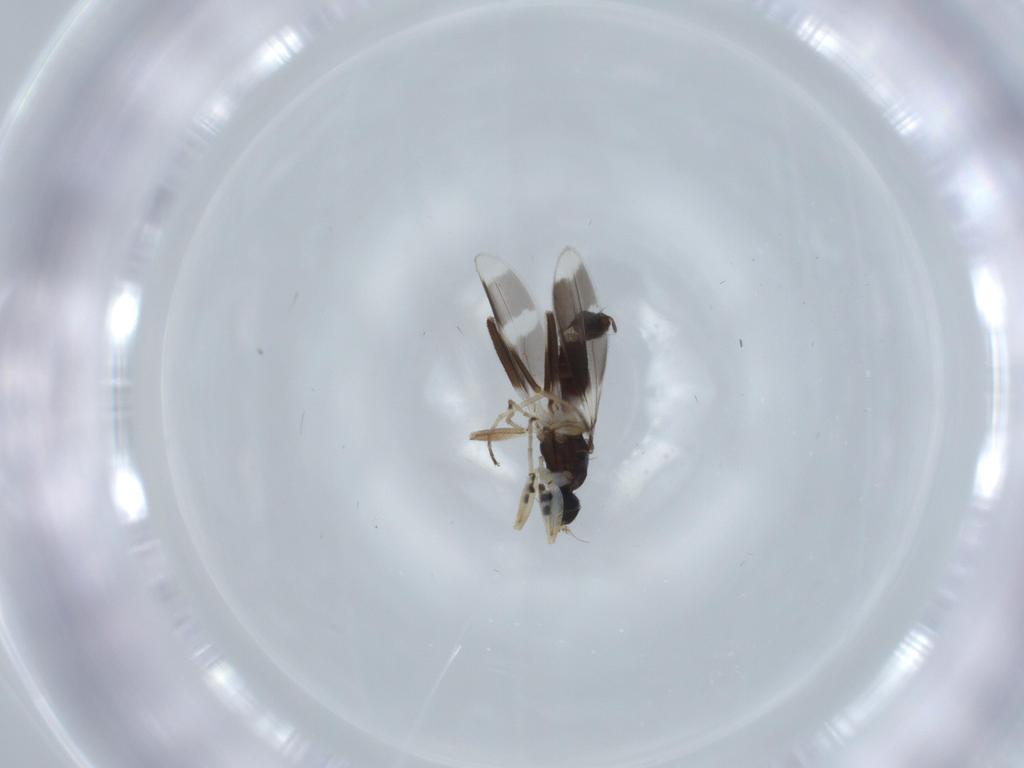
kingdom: Animalia
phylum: Arthropoda
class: Insecta
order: Diptera
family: Hybotidae
